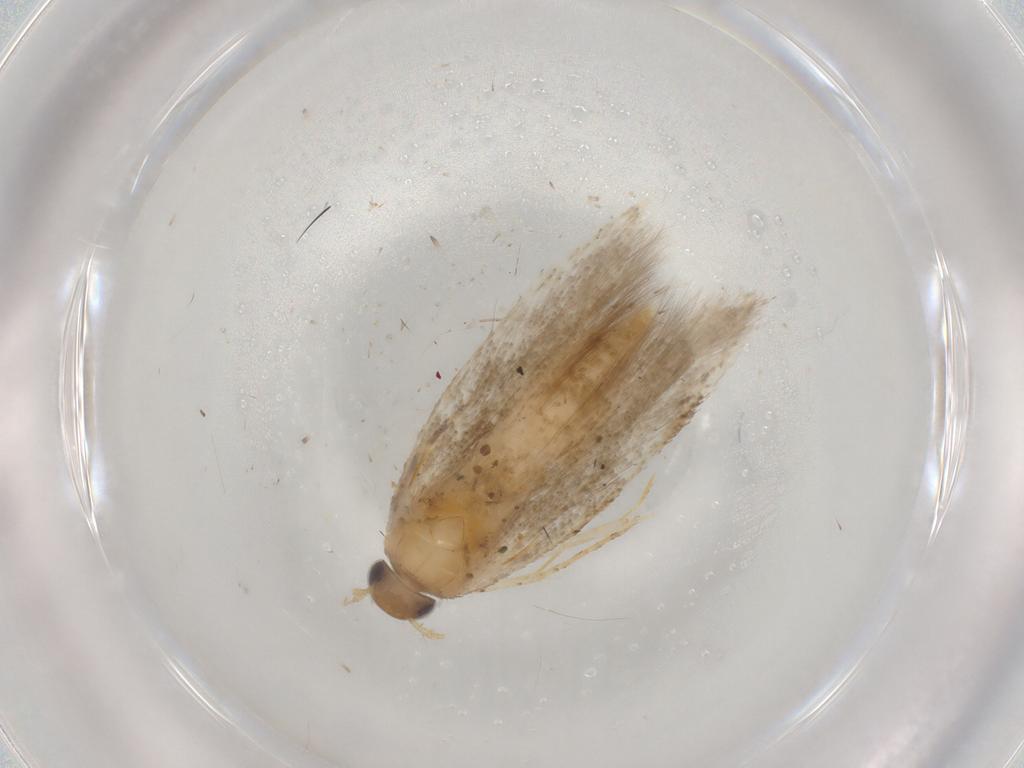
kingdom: Animalia
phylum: Arthropoda
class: Insecta
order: Lepidoptera
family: Gelechiidae
